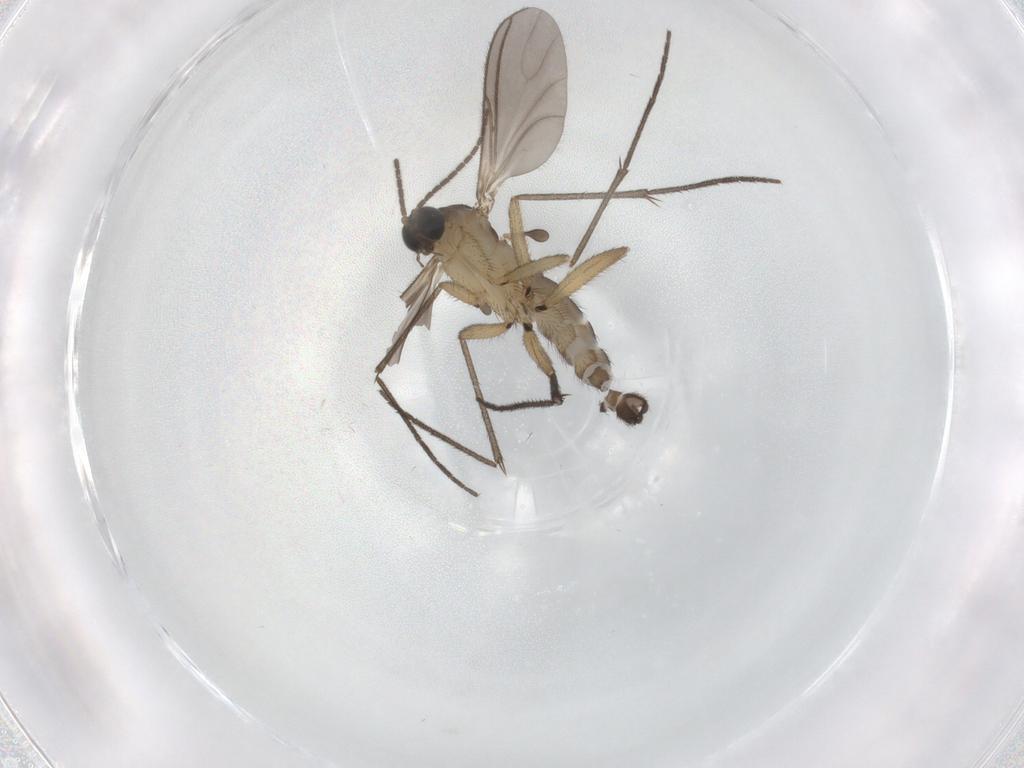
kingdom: Animalia
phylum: Arthropoda
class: Insecta
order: Diptera
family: Sciaridae
